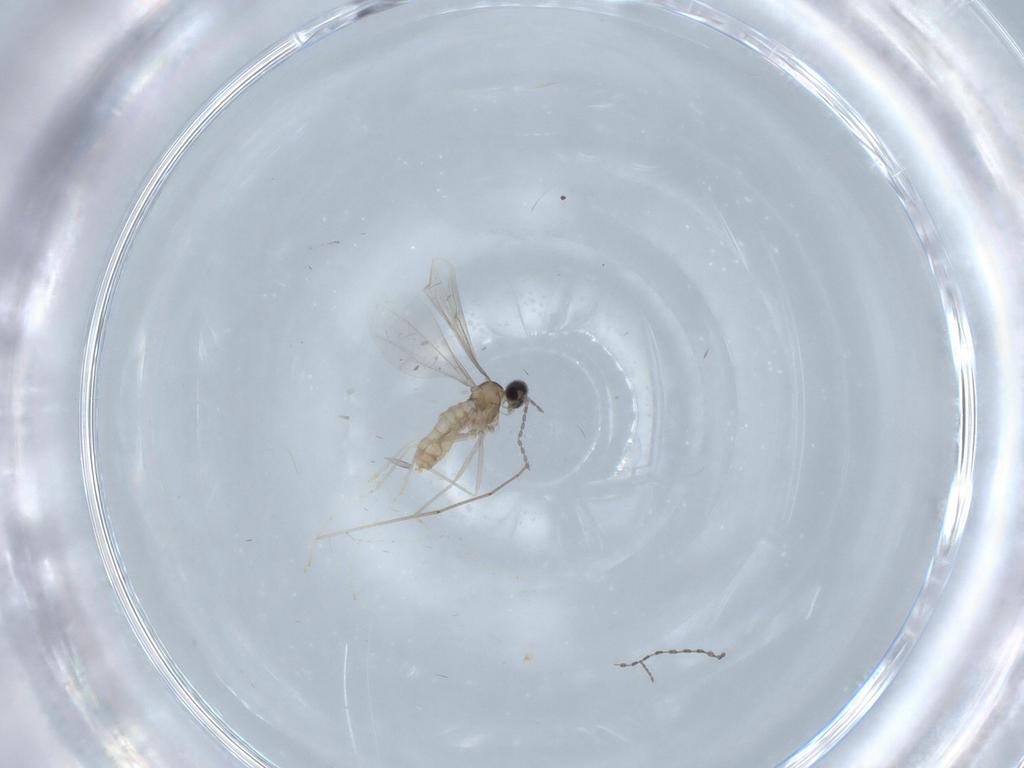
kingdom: Animalia
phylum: Arthropoda
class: Insecta
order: Diptera
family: Cecidomyiidae
